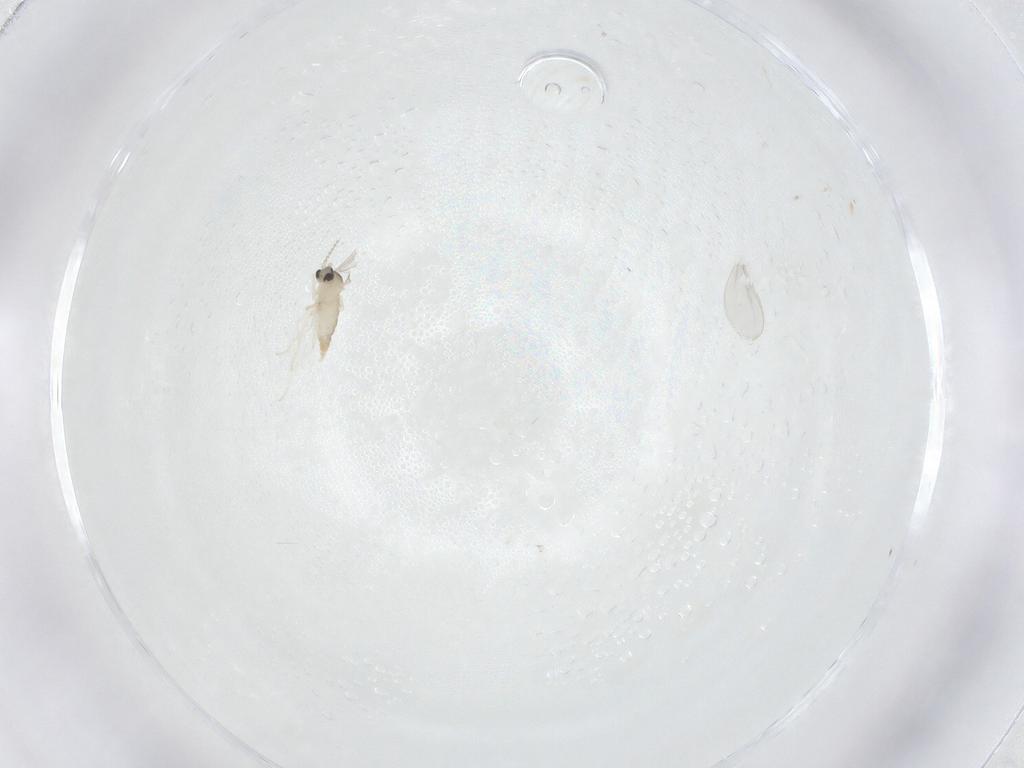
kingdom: Animalia
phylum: Arthropoda
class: Insecta
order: Diptera
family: Cecidomyiidae
